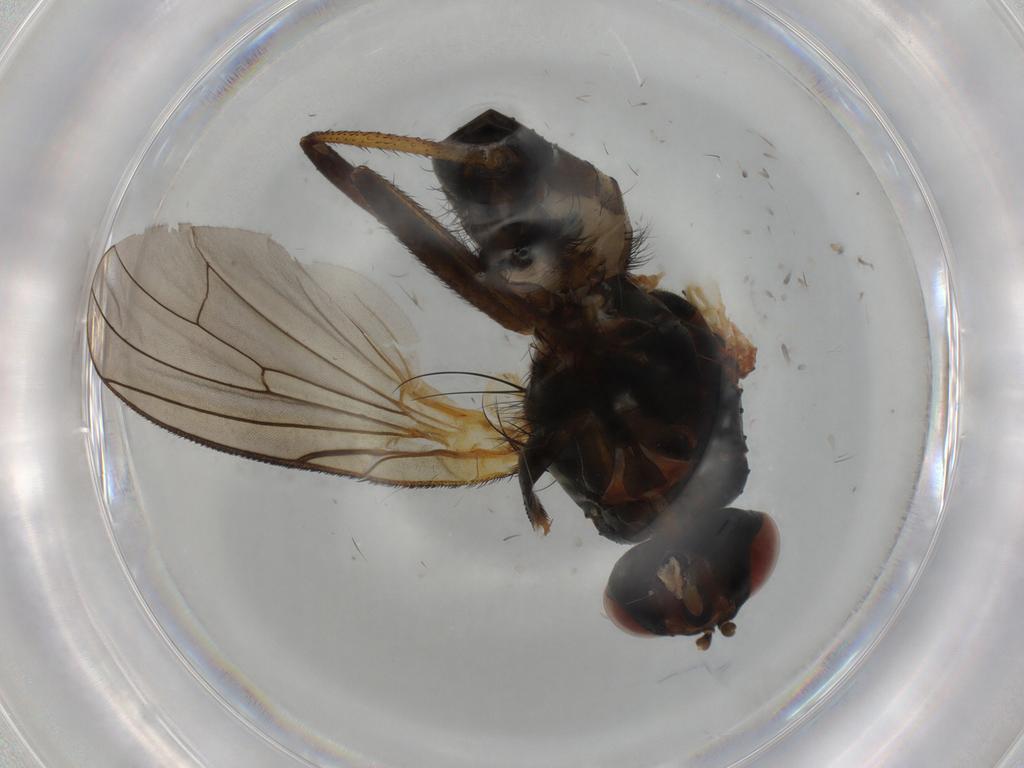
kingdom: Animalia
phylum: Arthropoda
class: Insecta
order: Diptera
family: Anthomyiidae
